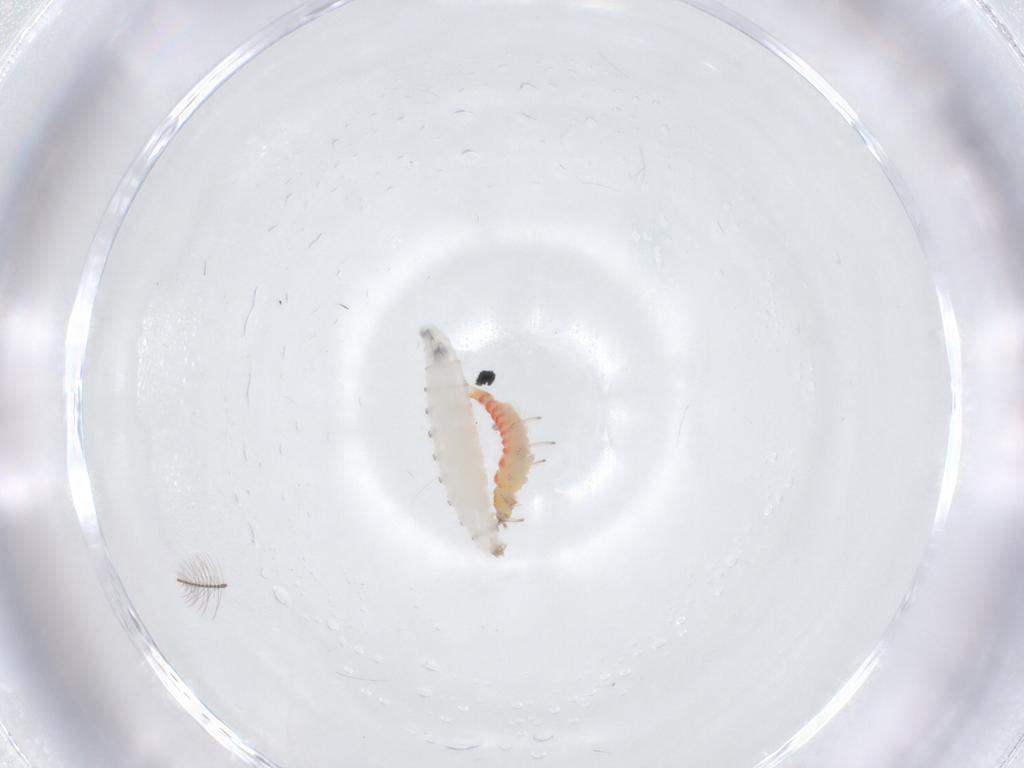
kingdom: Animalia
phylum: Arthropoda
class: Insecta
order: Diptera
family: Drosophilidae
